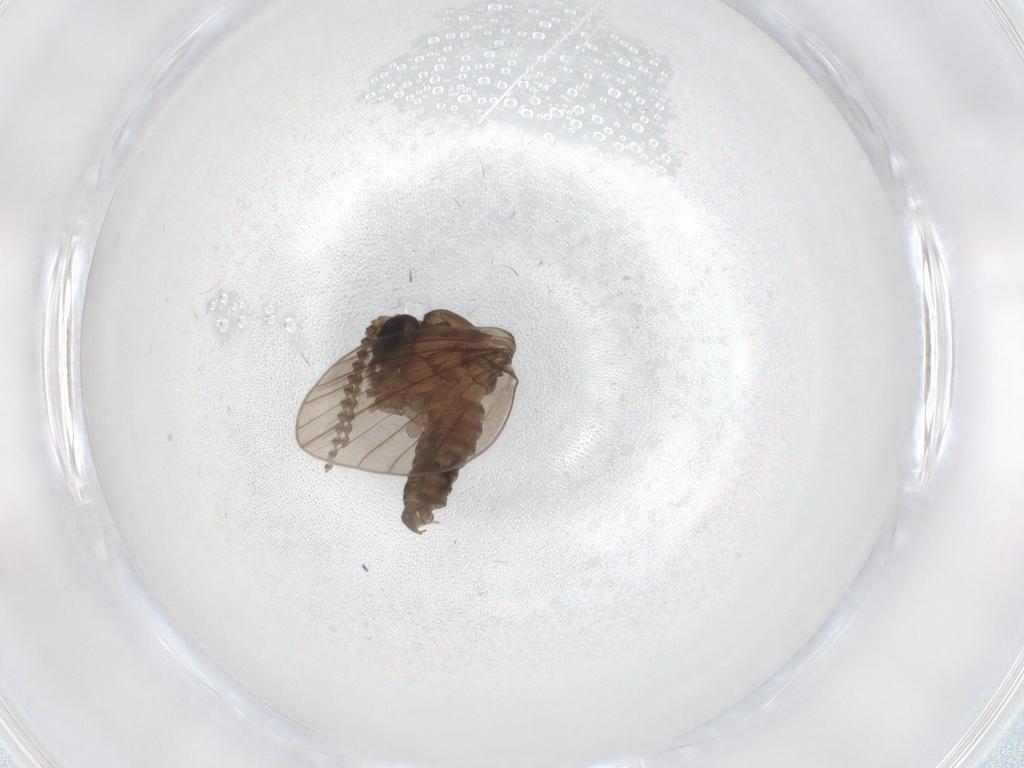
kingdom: Animalia
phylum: Arthropoda
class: Insecta
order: Diptera
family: Psychodidae
